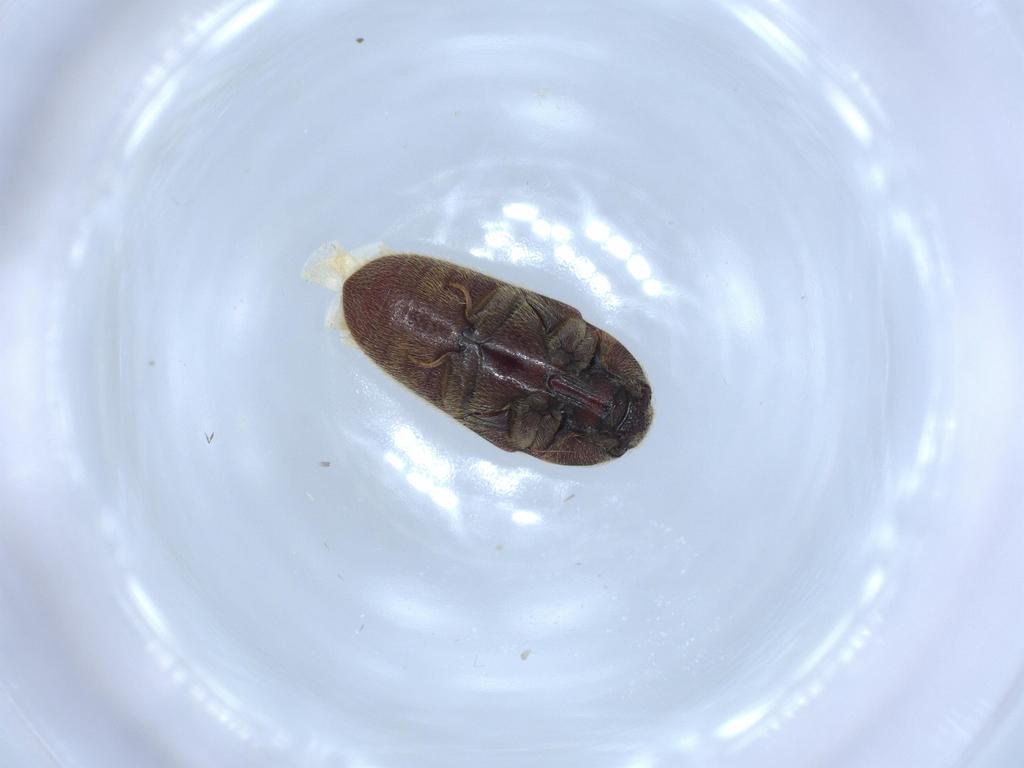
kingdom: Animalia
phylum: Arthropoda
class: Insecta
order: Coleoptera
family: Throscidae
